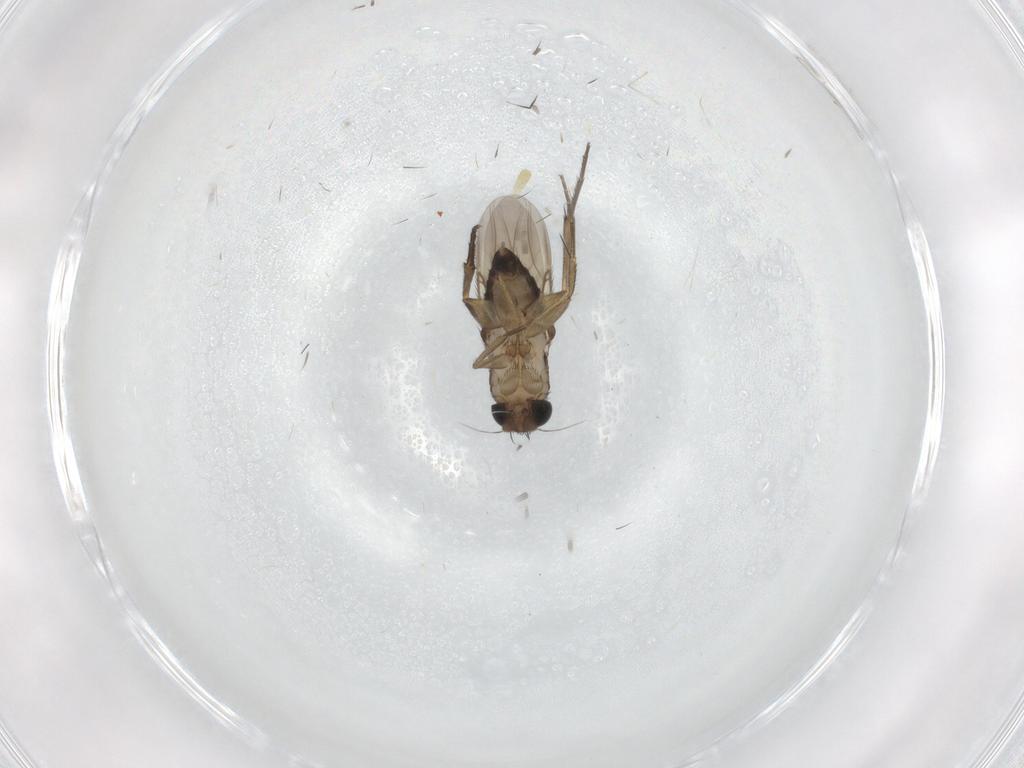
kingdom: Animalia
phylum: Arthropoda
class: Insecta
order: Diptera
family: Phoridae
